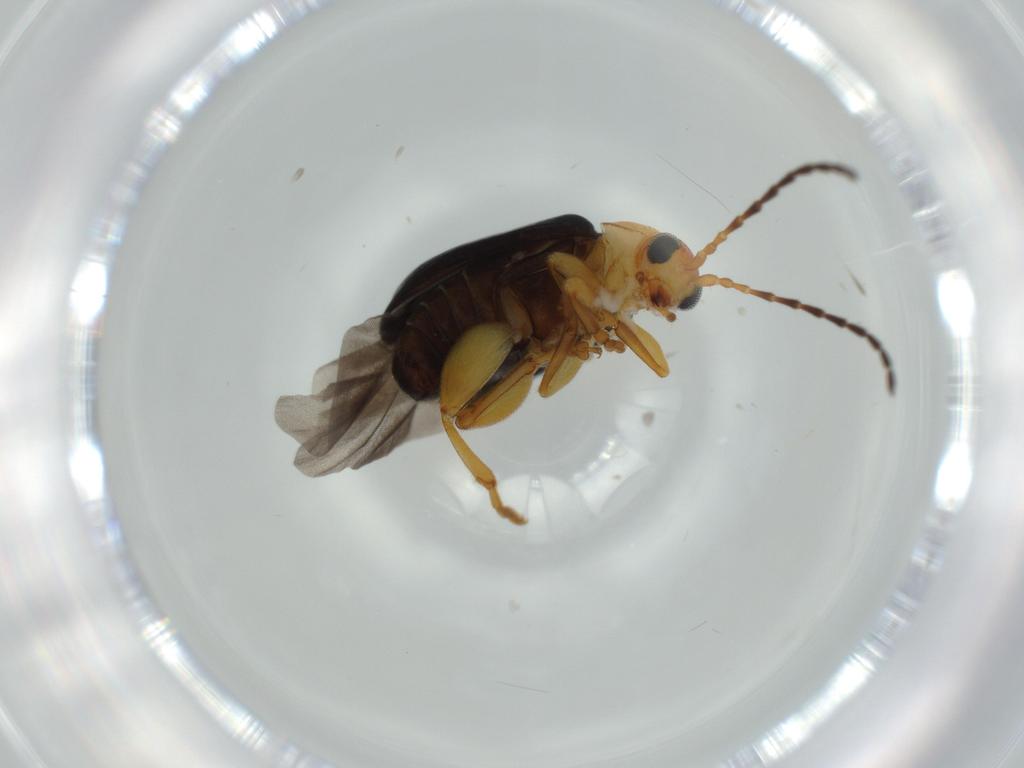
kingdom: Animalia
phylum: Arthropoda
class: Insecta
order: Coleoptera
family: Chrysomelidae
